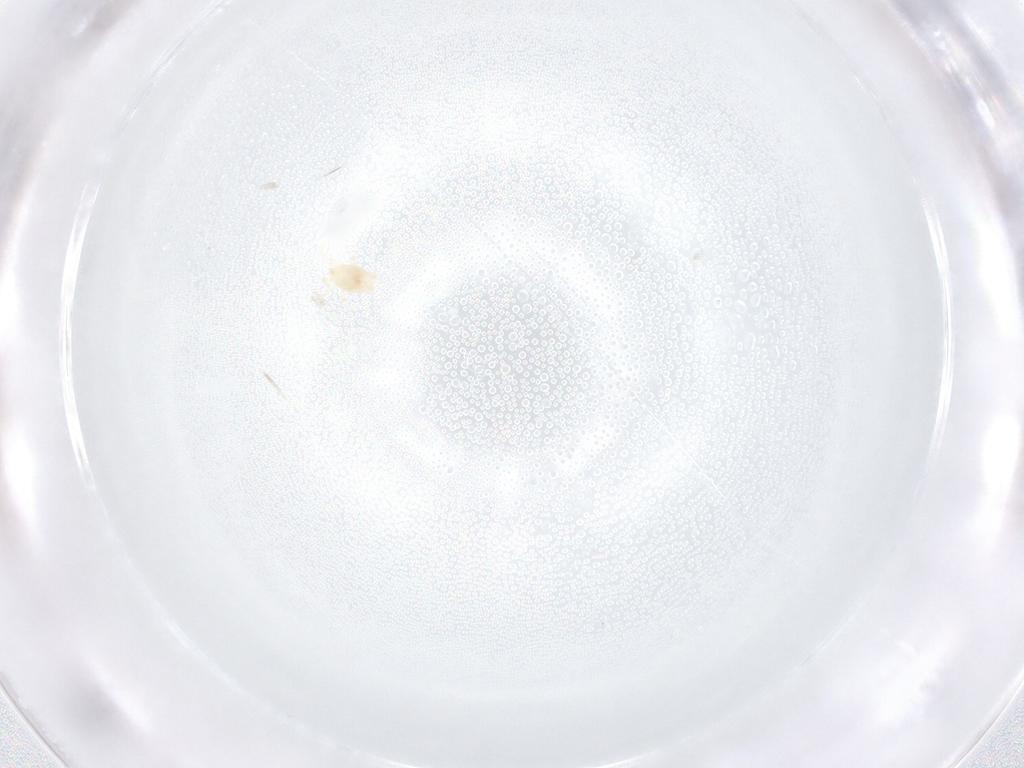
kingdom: Animalia
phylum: Arthropoda
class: Arachnida
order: Mesostigmata
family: Melicharidae
